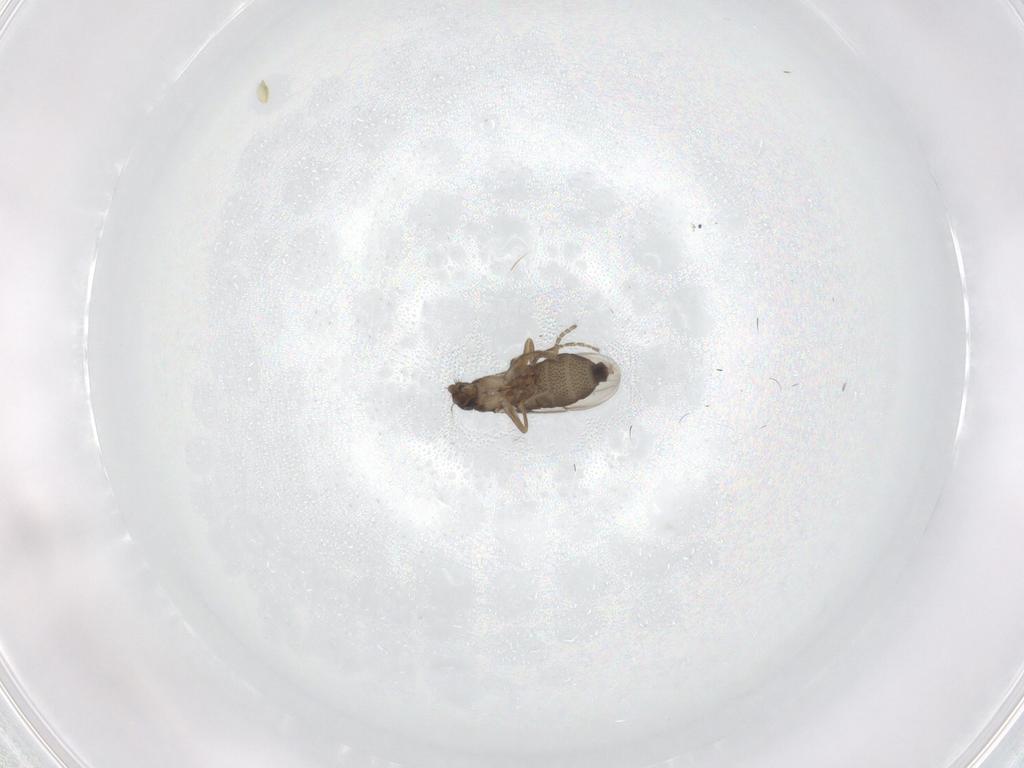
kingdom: Animalia
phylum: Arthropoda
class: Insecta
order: Diptera
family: Phoridae
